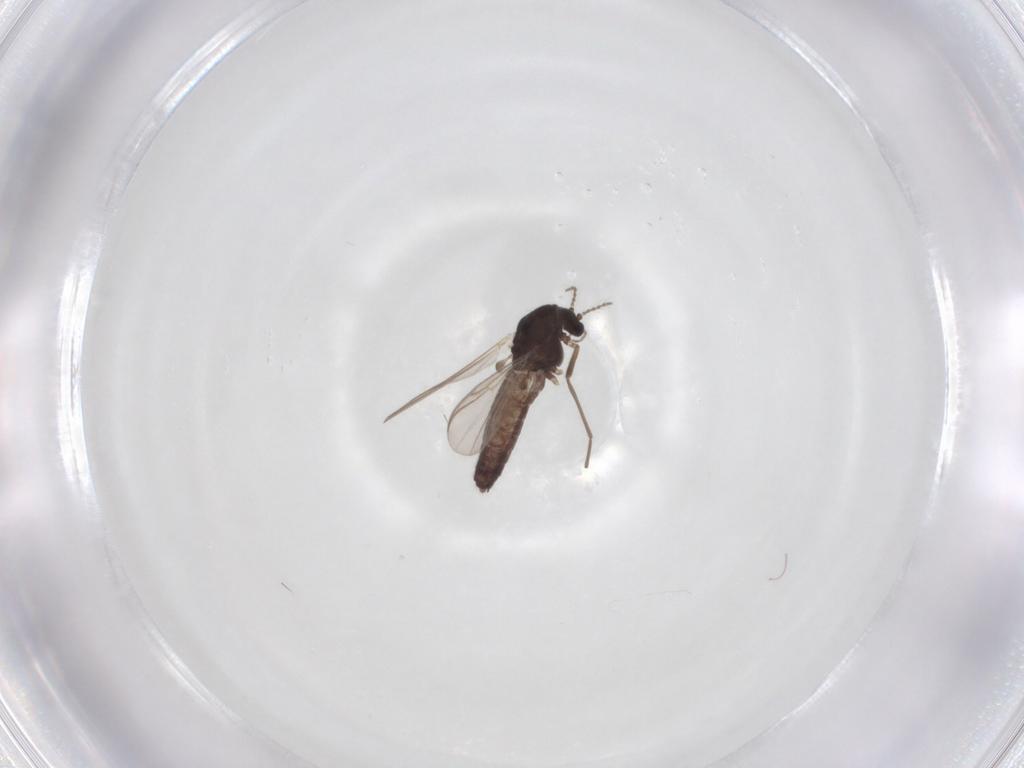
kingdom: Animalia
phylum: Arthropoda
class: Insecta
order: Diptera
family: Chironomidae
